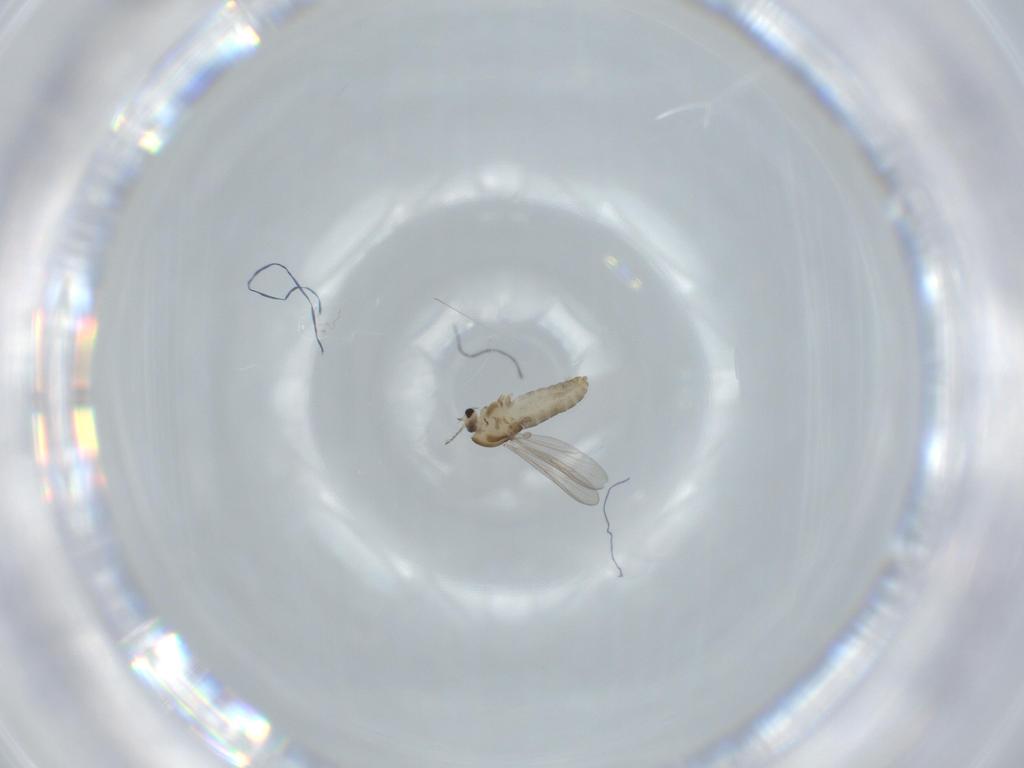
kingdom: Animalia
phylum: Arthropoda
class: Insecta
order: Diptera
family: Chironomidae
